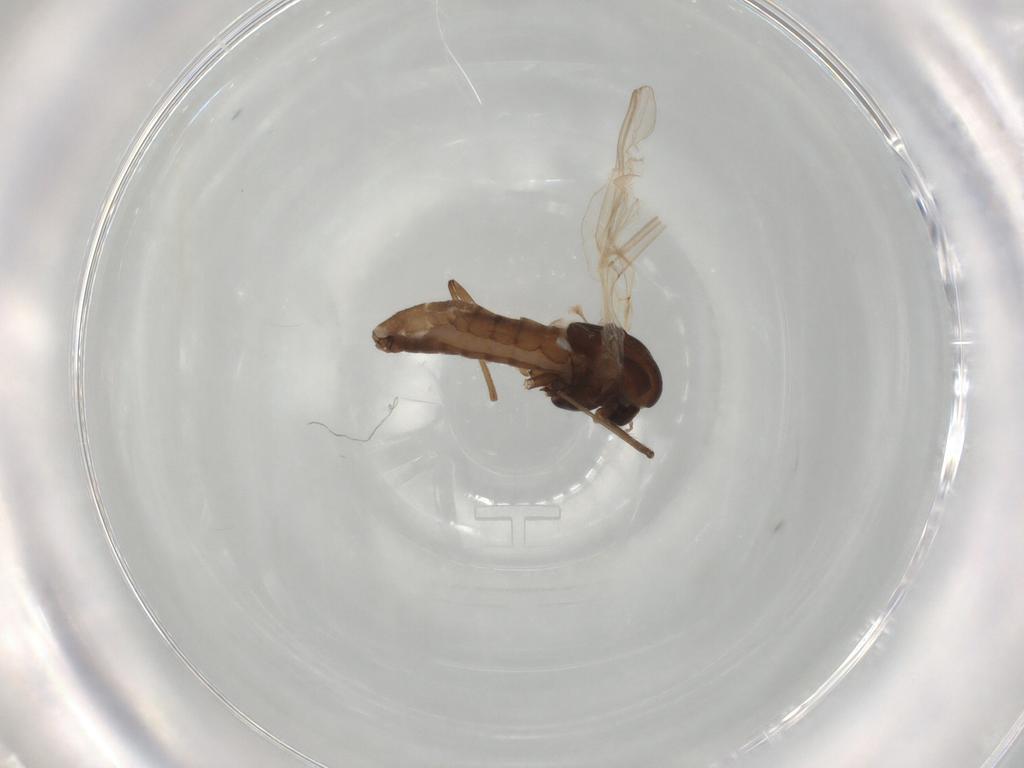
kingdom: Animalia
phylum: Arthropoda
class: Insecta
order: Diptera
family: Chironomidae
